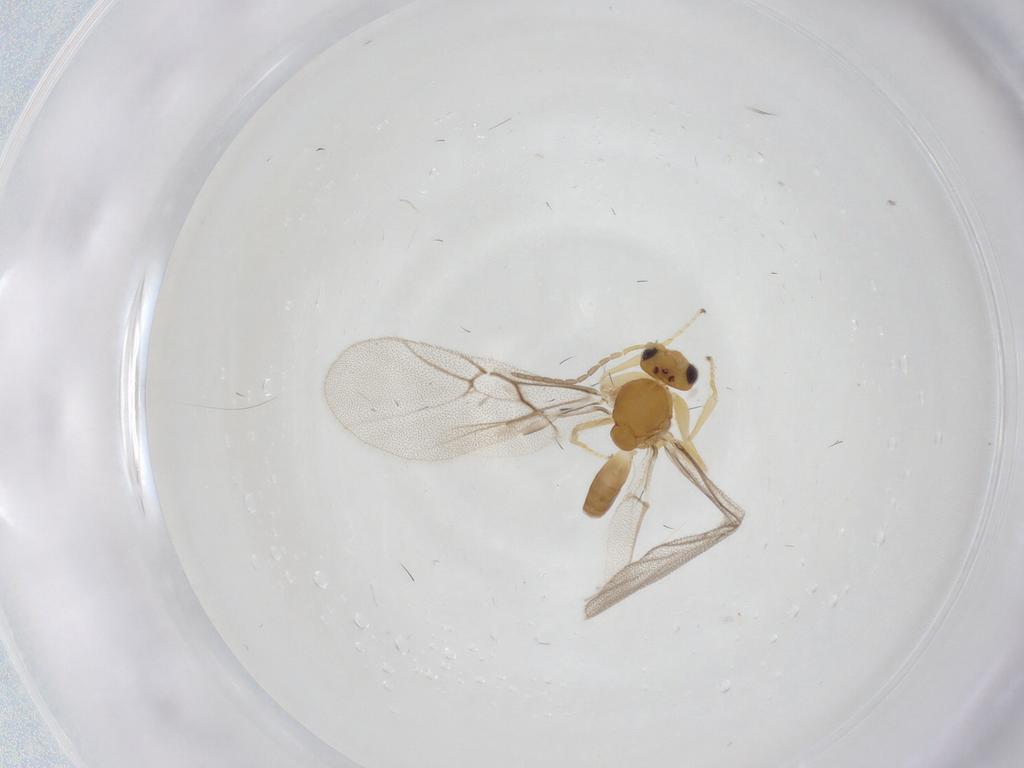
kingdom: Animalia
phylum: Arthropoda
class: Insecta
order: Hymenoptera
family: Cynipidae
